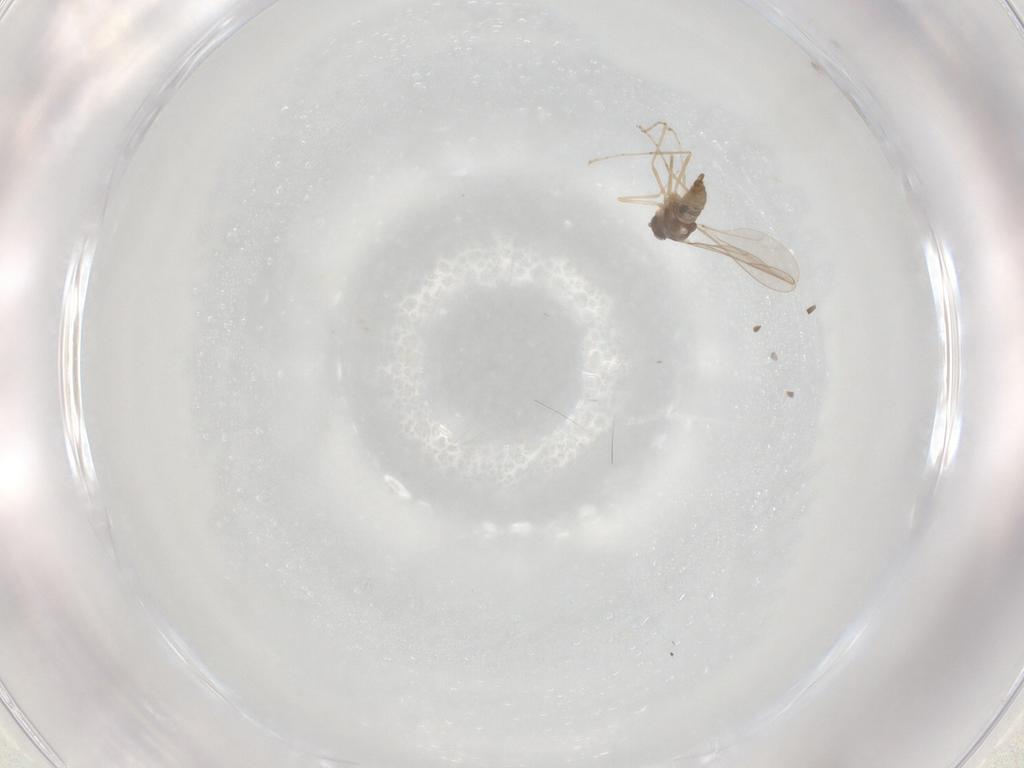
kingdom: Animalia
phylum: Arthropoda
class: Insecta
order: Diptera
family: Cecidomyiidae
